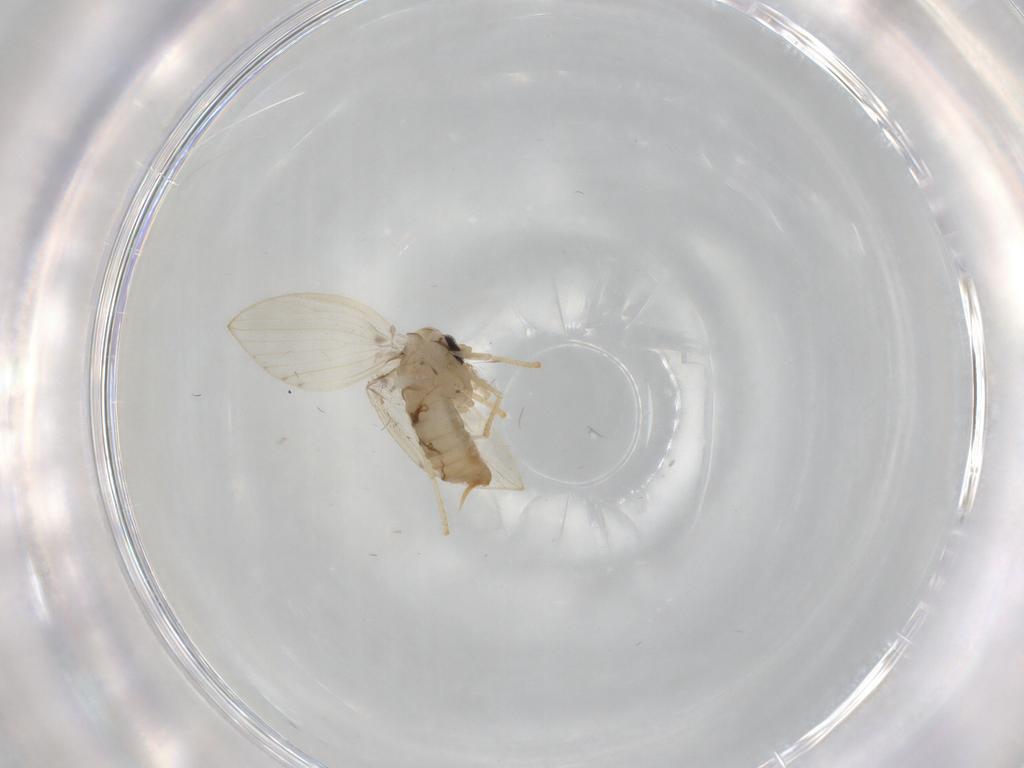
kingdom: Animalia
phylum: Arthropoda
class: Insecta
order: Diptera
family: Psychodidae
